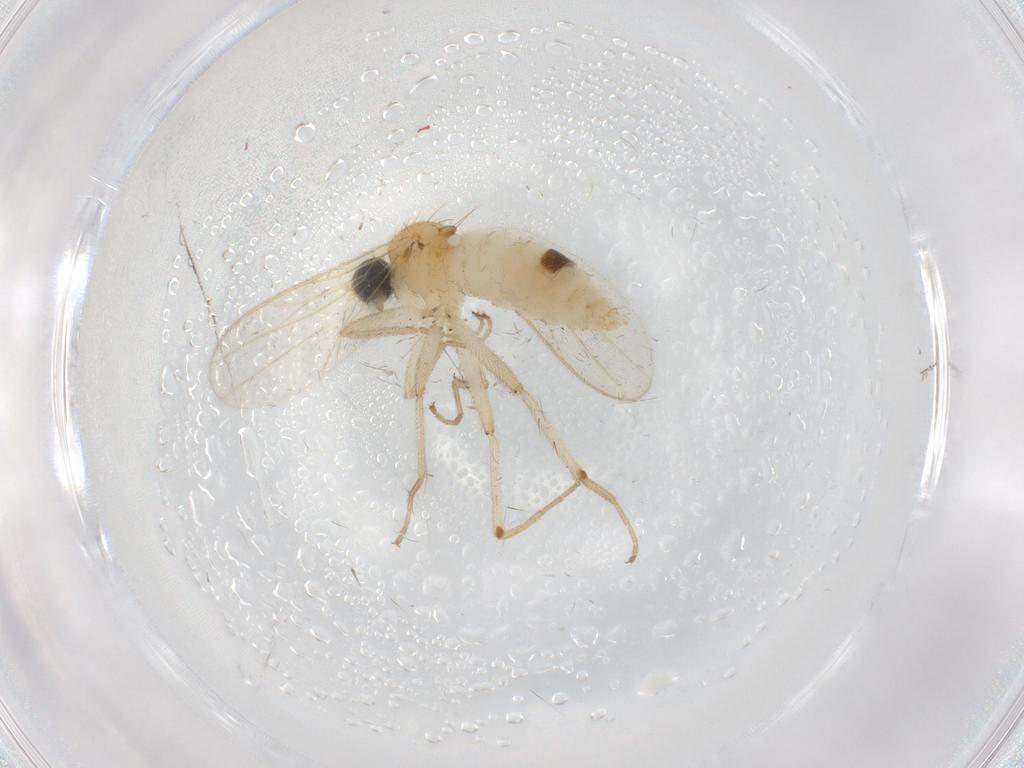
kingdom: Animalia
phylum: Arthropoda
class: Insecta
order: Diptera
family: Hybotidae
